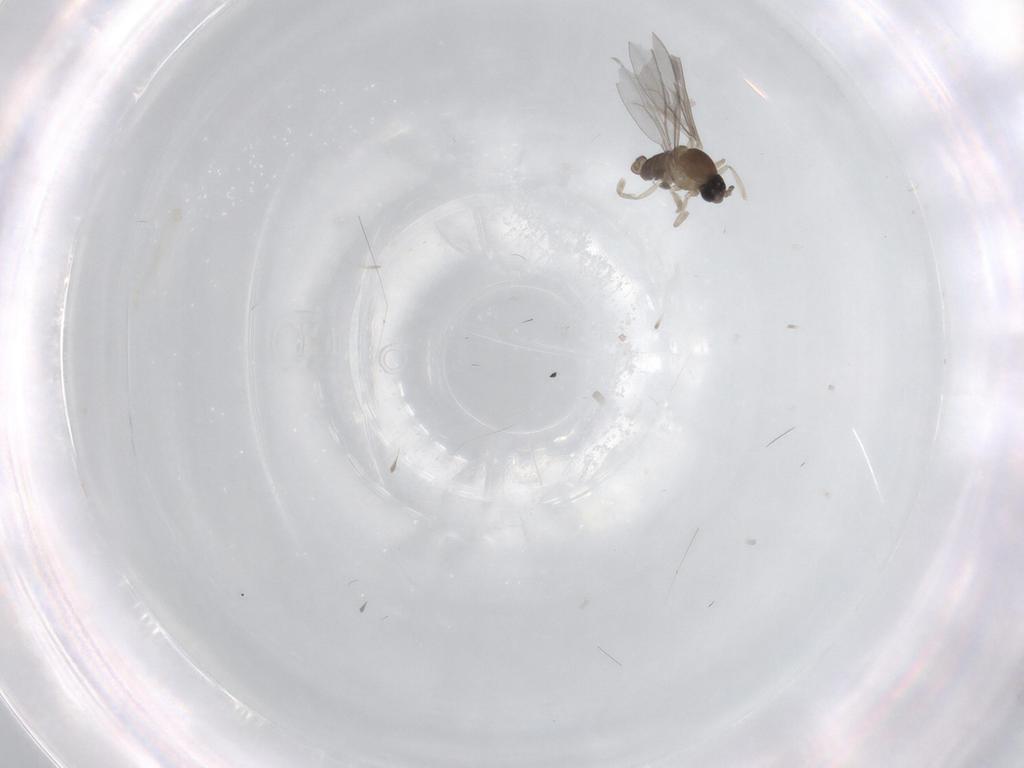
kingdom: Animalia
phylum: Arthropoda
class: Insecta
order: Diptera
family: Cecidomyiidae
